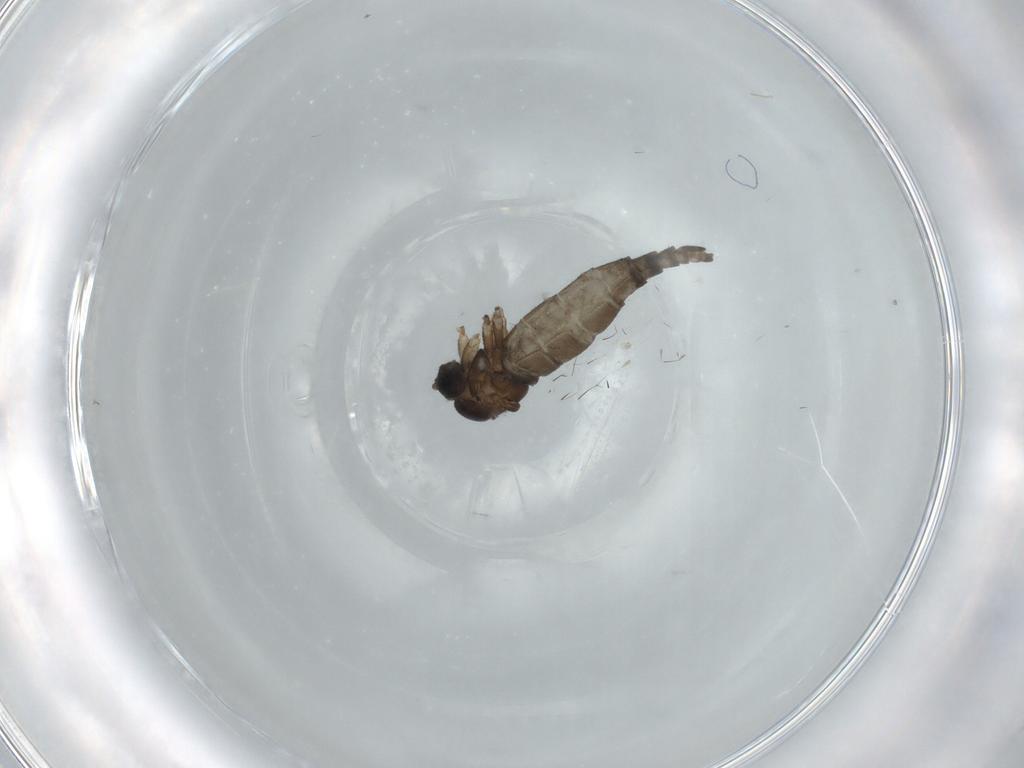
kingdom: Animalia
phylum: Arthropoda
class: Insecta
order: Diptera
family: Sciaridae
